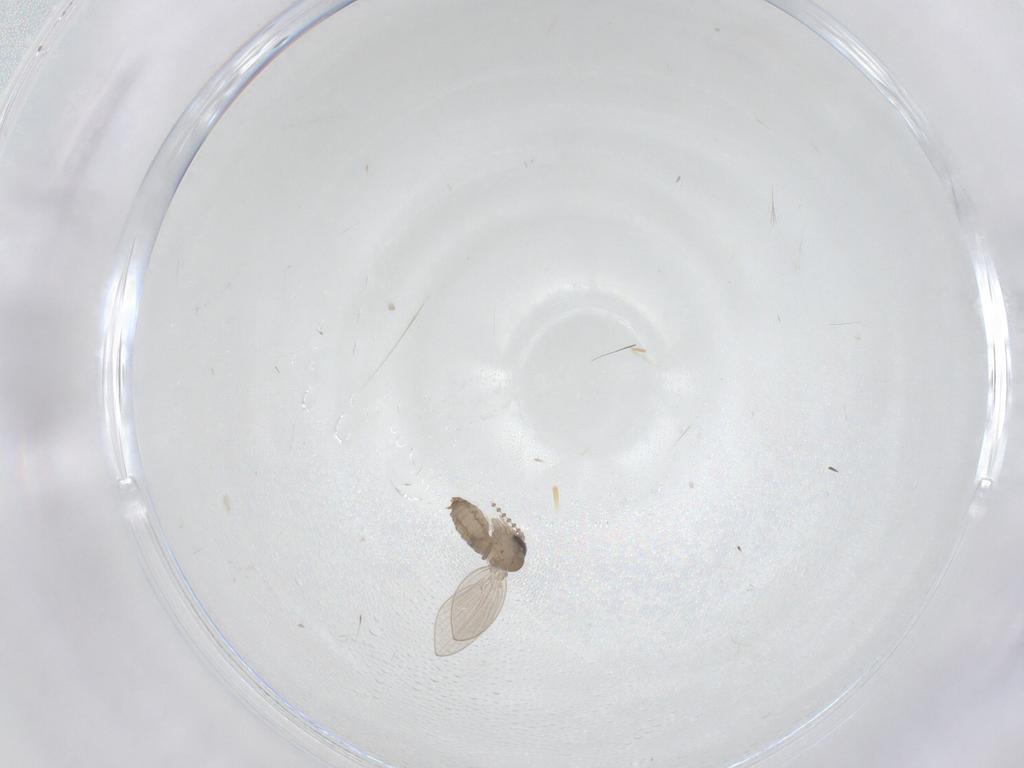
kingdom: Animalia
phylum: Arthropoda
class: Insecta
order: Diptera
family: Psychodidae
